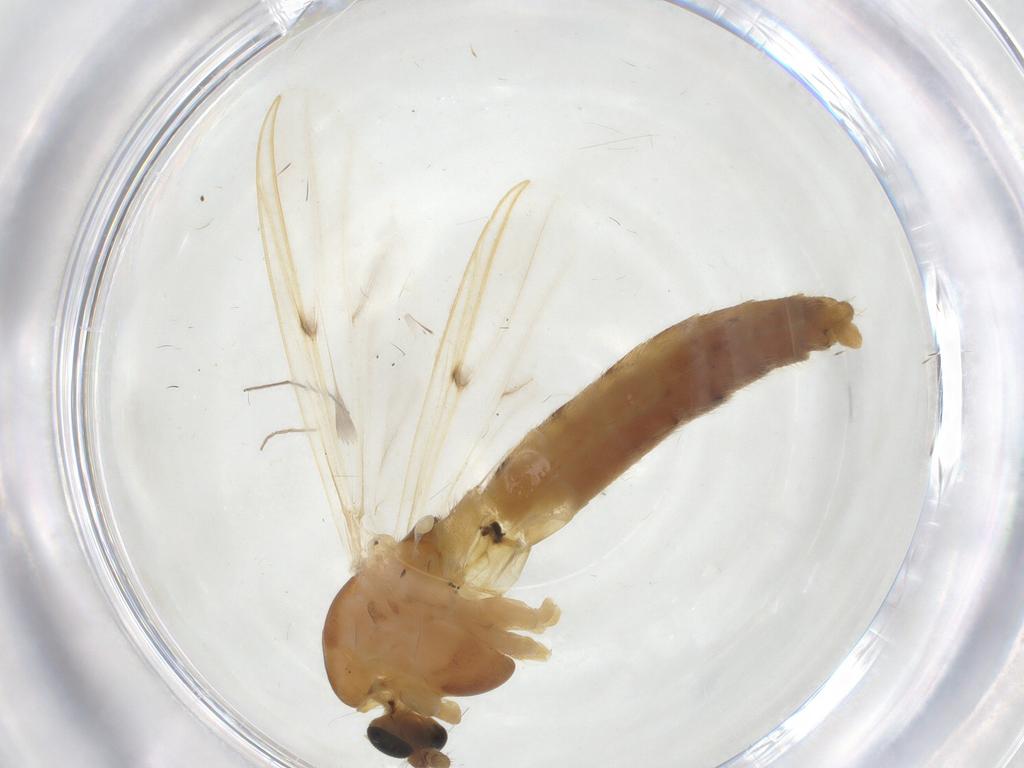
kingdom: Animalia
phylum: Arthropoda
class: Insecta
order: Diptera
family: Chironomidae
